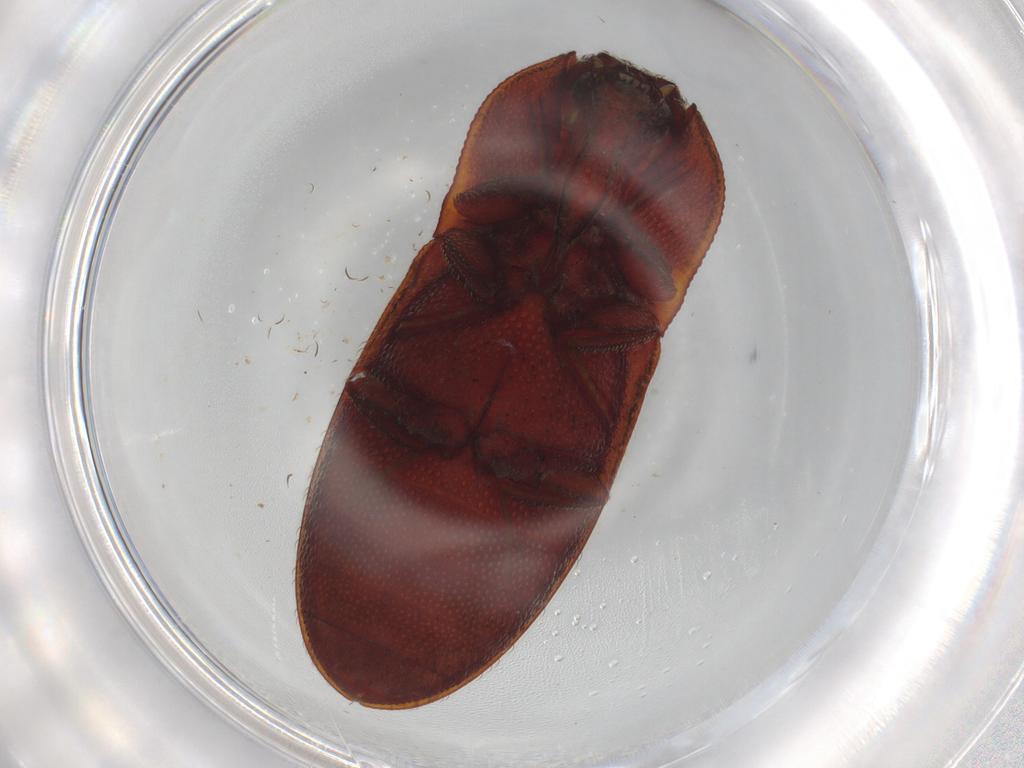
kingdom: Animalia
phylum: Arthropoda
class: Insecta
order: Coleoptera
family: Elateridae
